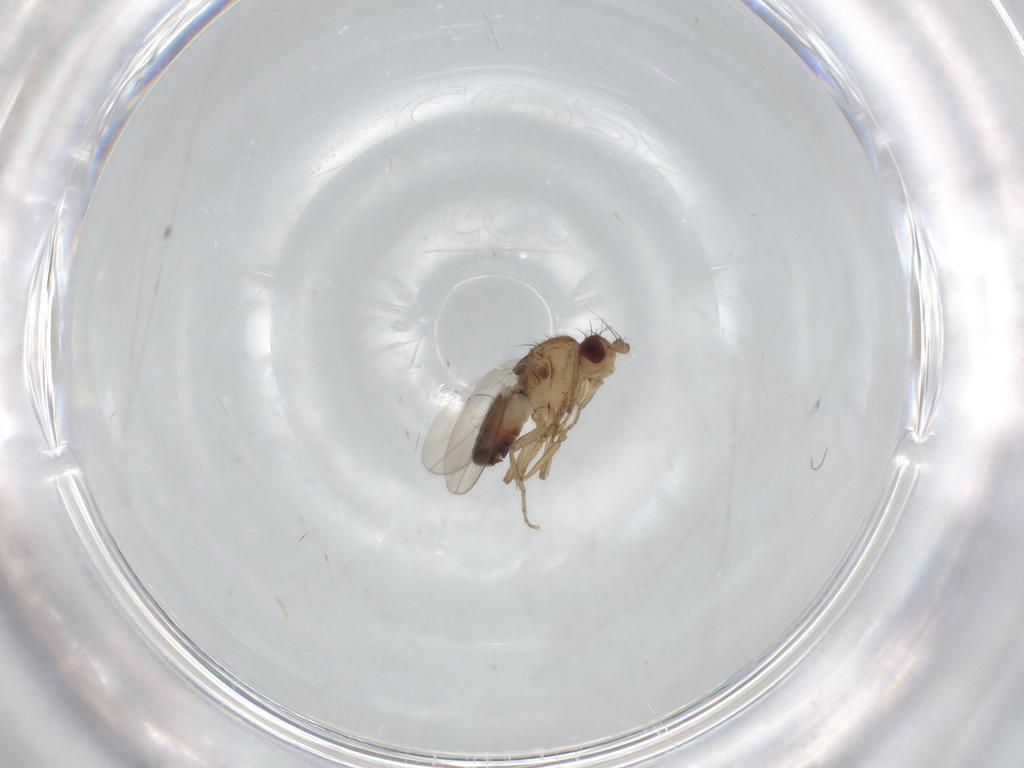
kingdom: Animalia
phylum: Arthropoda
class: Insecta
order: Diptera
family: Sphaeroceridae
